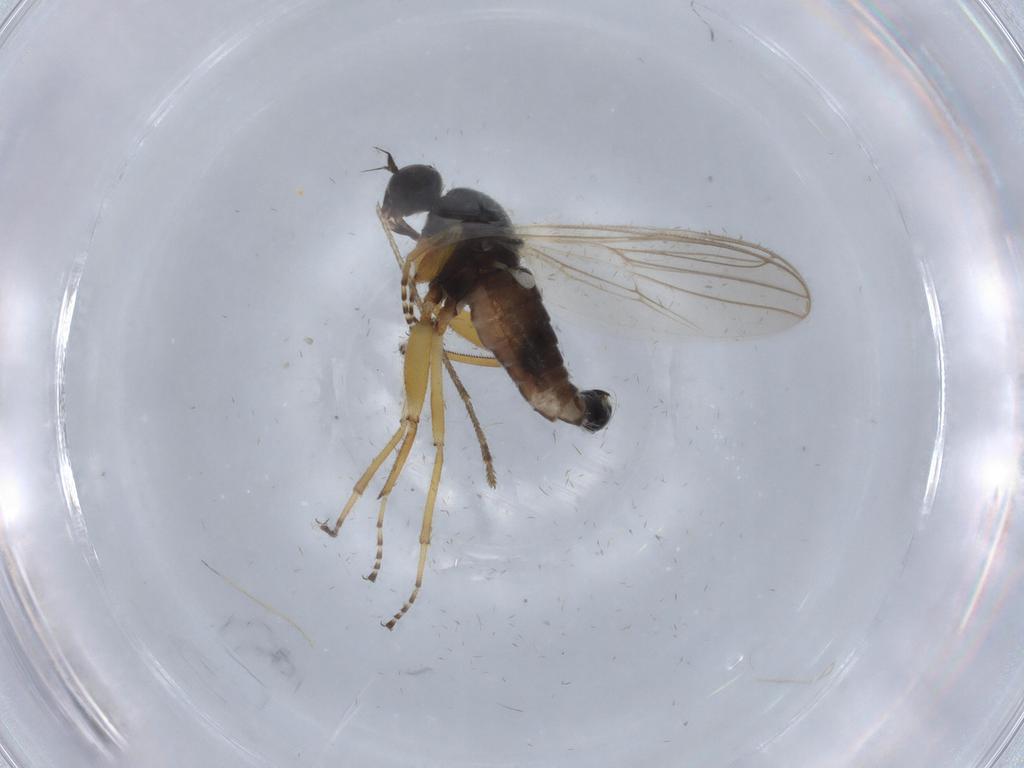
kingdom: Animalia
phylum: Arthropoda
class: Insecta
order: Diptera
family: Hybotidae
